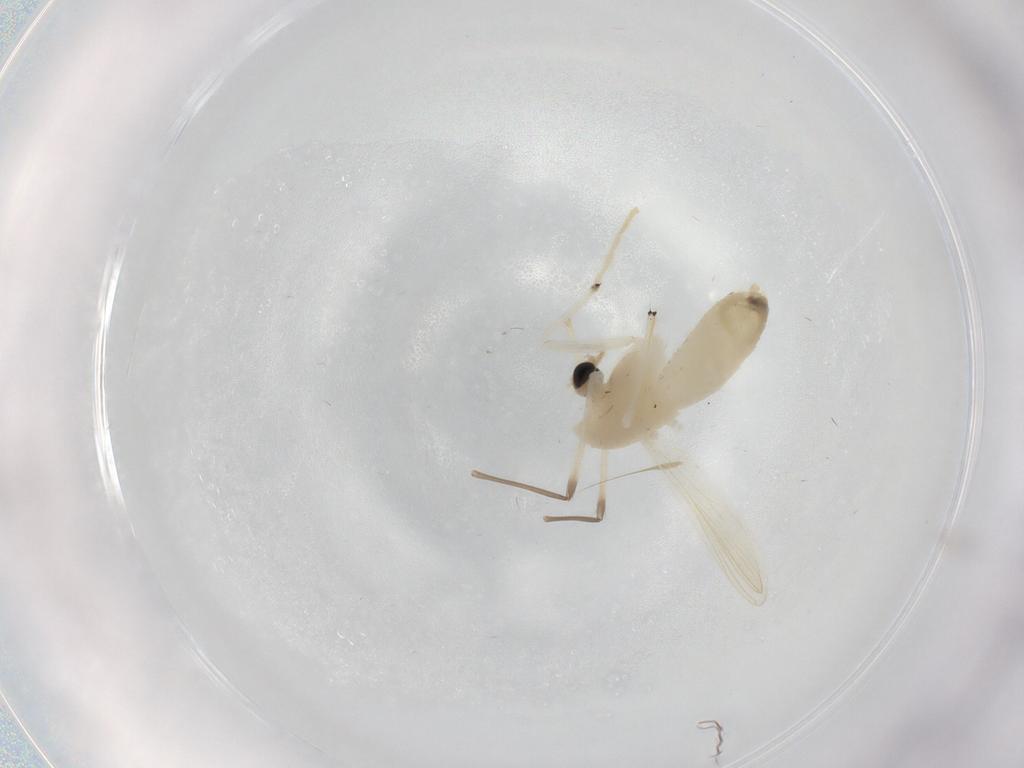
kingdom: Animalia
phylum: Arthropoda
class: Insecta
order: Diptera
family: Chironomidae
